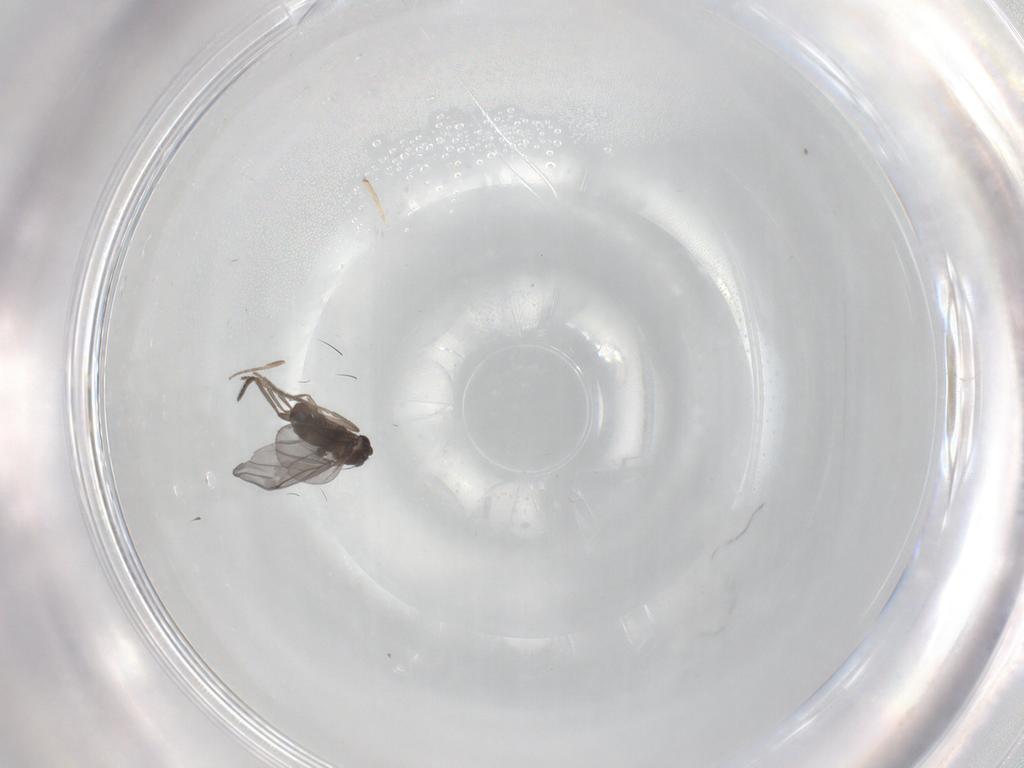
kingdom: Animalia
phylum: Arthropoda
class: Insecta
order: Diptera
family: Phoridae
